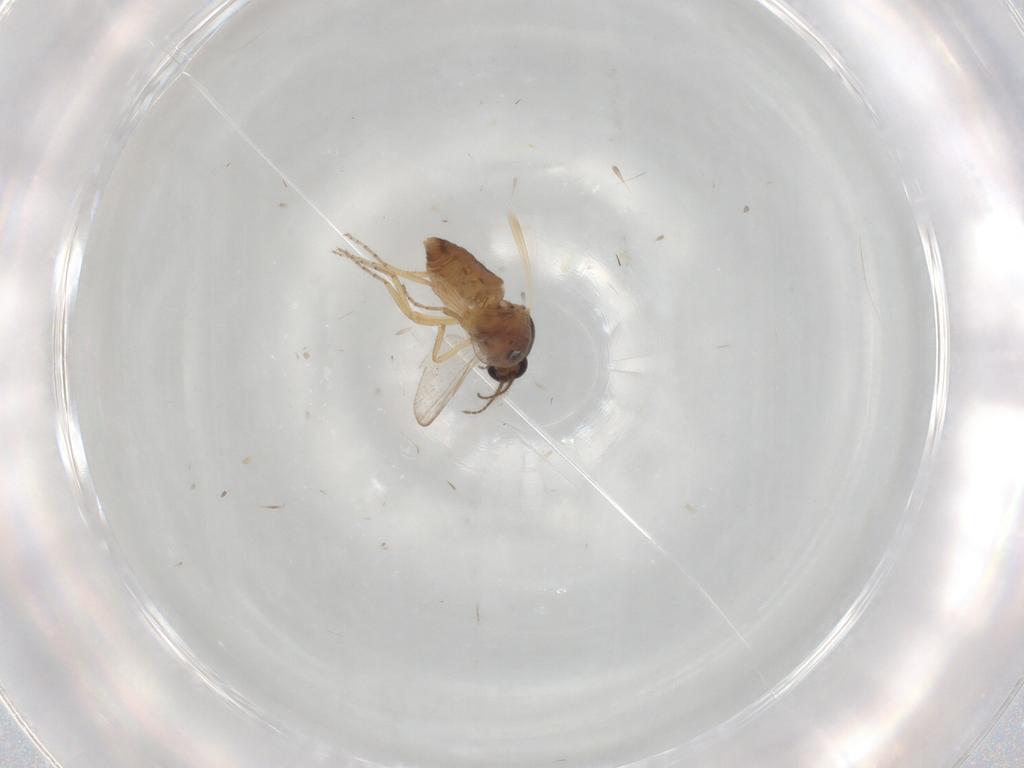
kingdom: Animalia
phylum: Arthropoda
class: Insecta
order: Diptera
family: Ceratopogonidae
